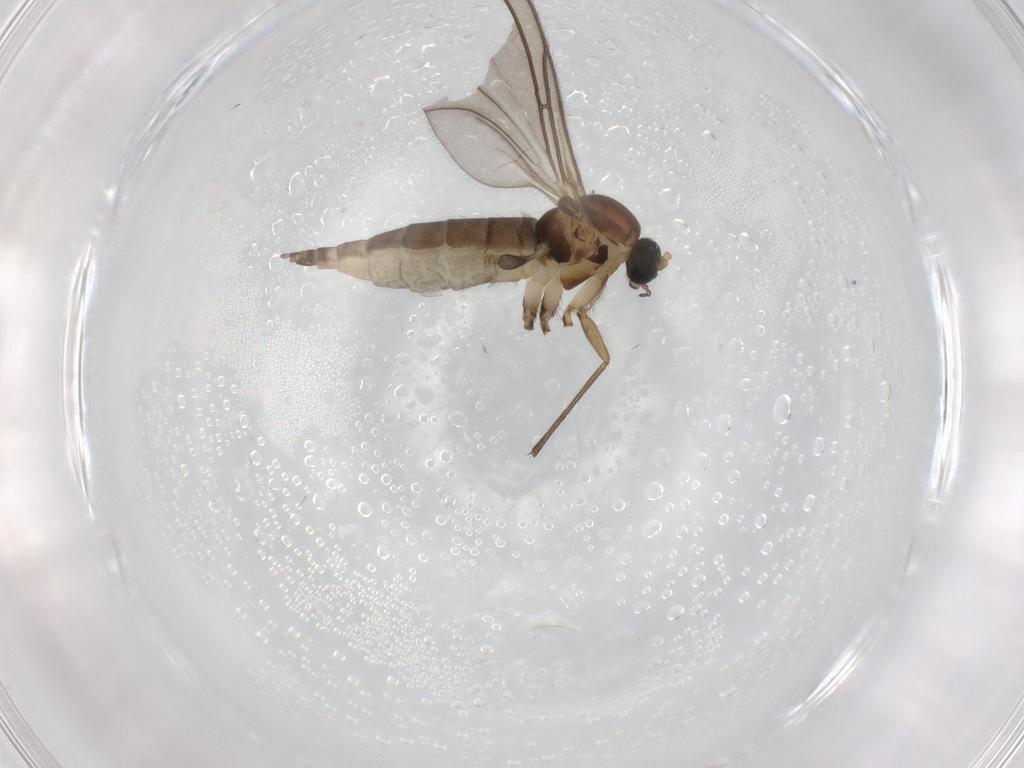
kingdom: Animalia
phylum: Arthropoda
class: Insecta
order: Diptera
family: Sciaridae
